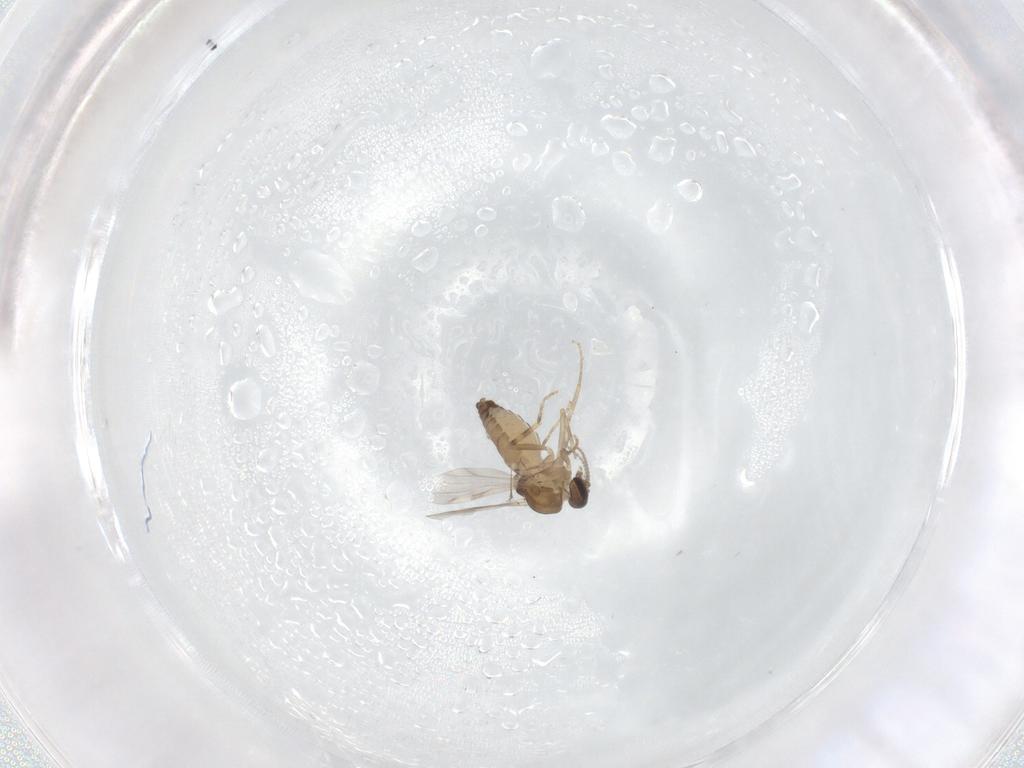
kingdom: Animalia
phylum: Arthropoda
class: Insecta
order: Diptera
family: Ceratopogonidae
